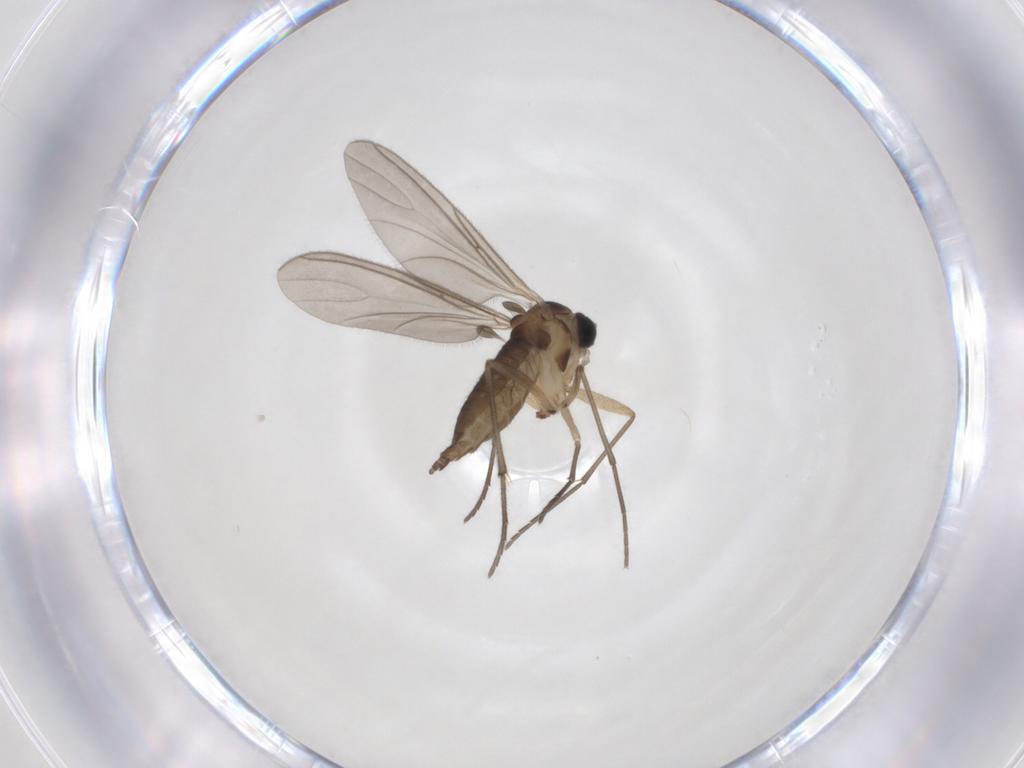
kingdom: Animalia
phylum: Arthropoda
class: Insecta
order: Diptera
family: Sciaridae
